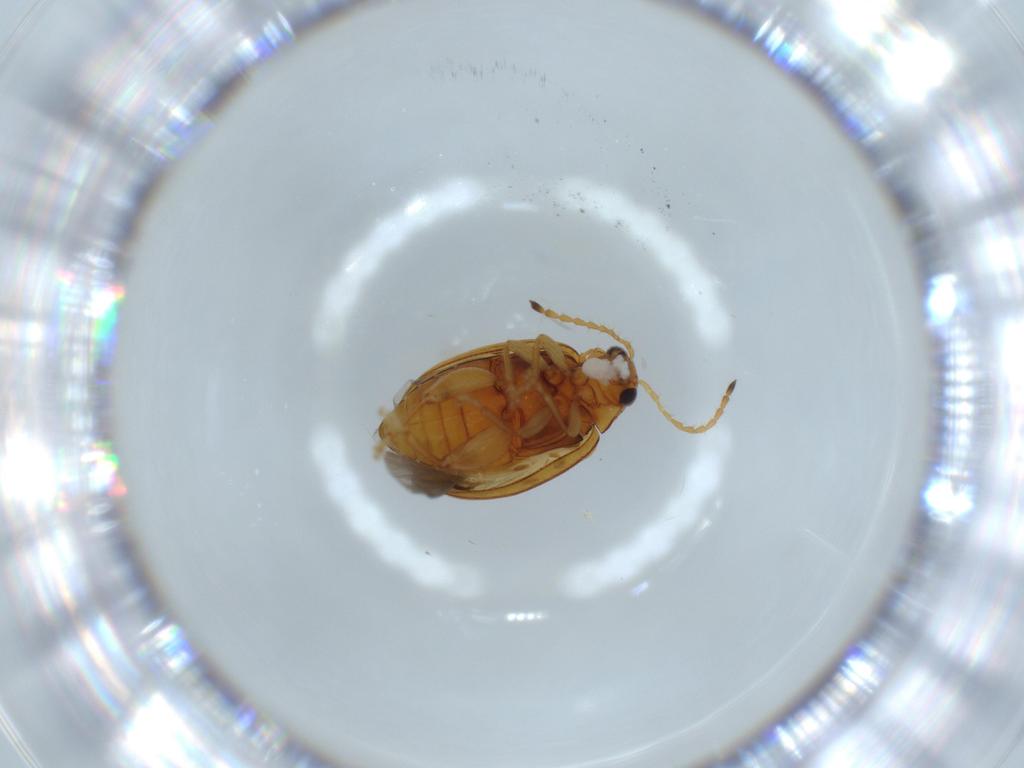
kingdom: Animalia
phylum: Arthropoda
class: Insecta
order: Coleoptera
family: Chrysomelidae
